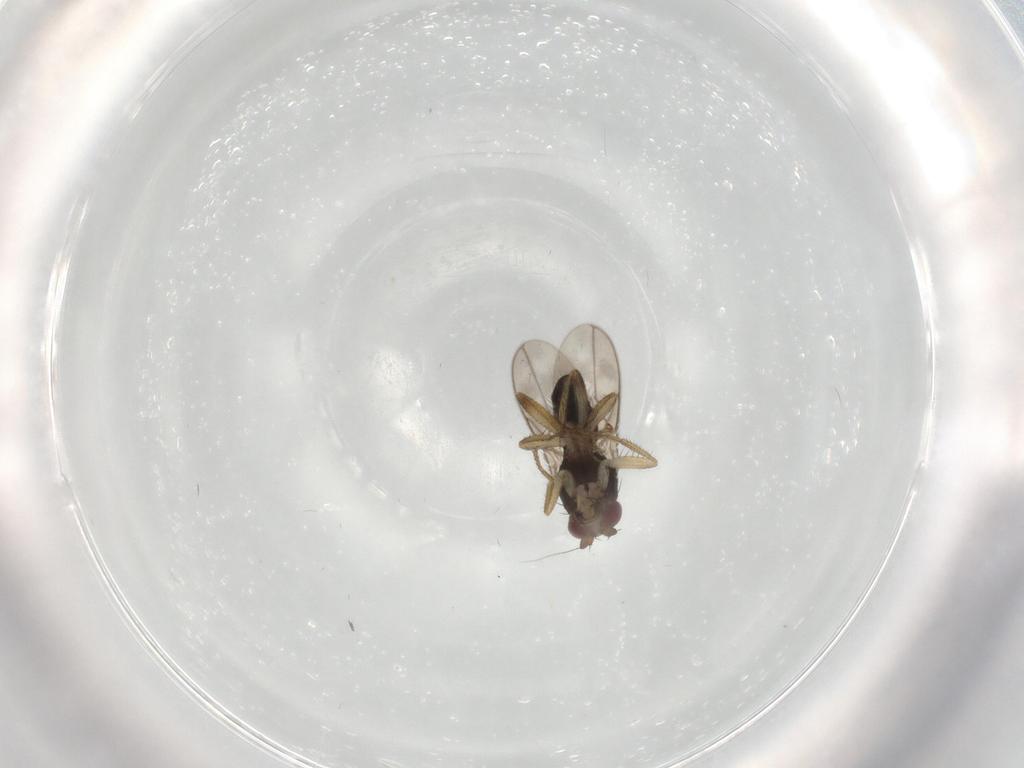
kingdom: Animalia
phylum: Arthropoda
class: Insecta
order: Diptera
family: Sphaeroceridae
